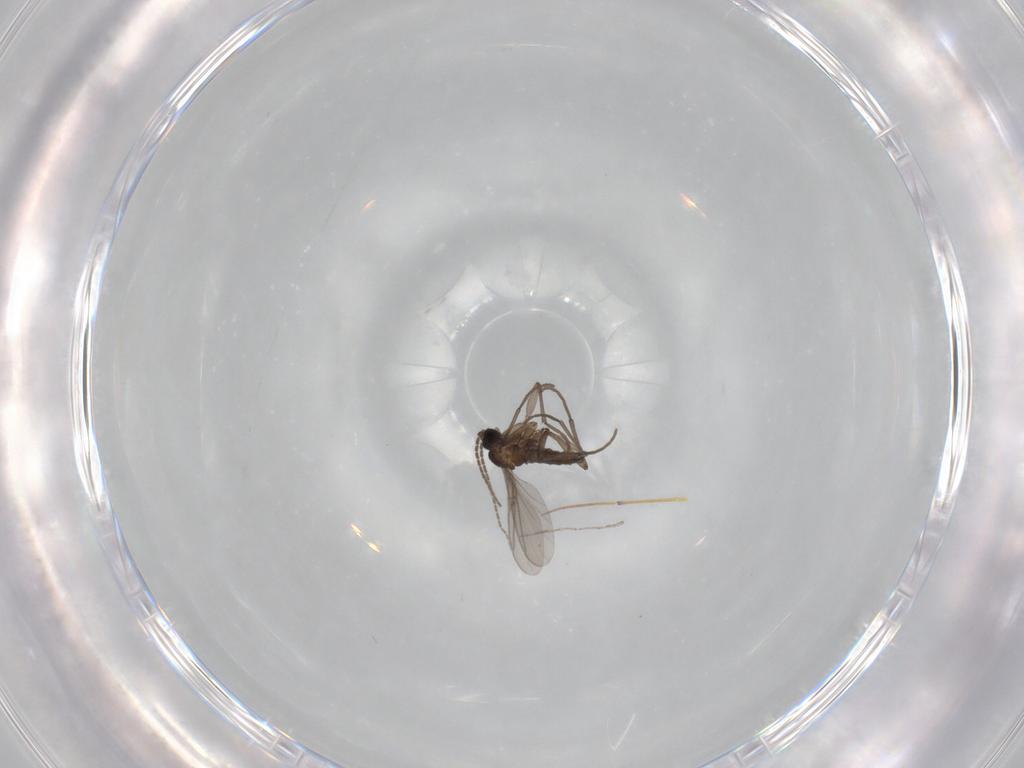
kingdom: Animalia
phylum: Arthropoda
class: Insecta
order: Diptera
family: Sciaridae
